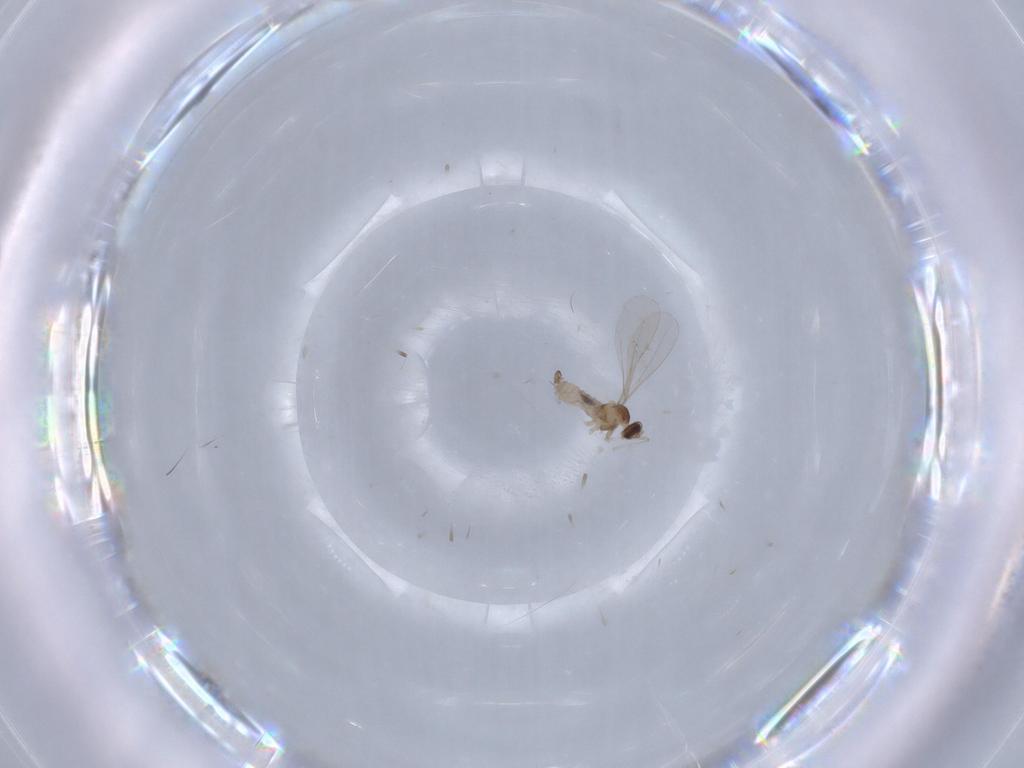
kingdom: Animalia
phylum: Arthropoda
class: Insecta
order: Diptera
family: Cecidomyiidae
